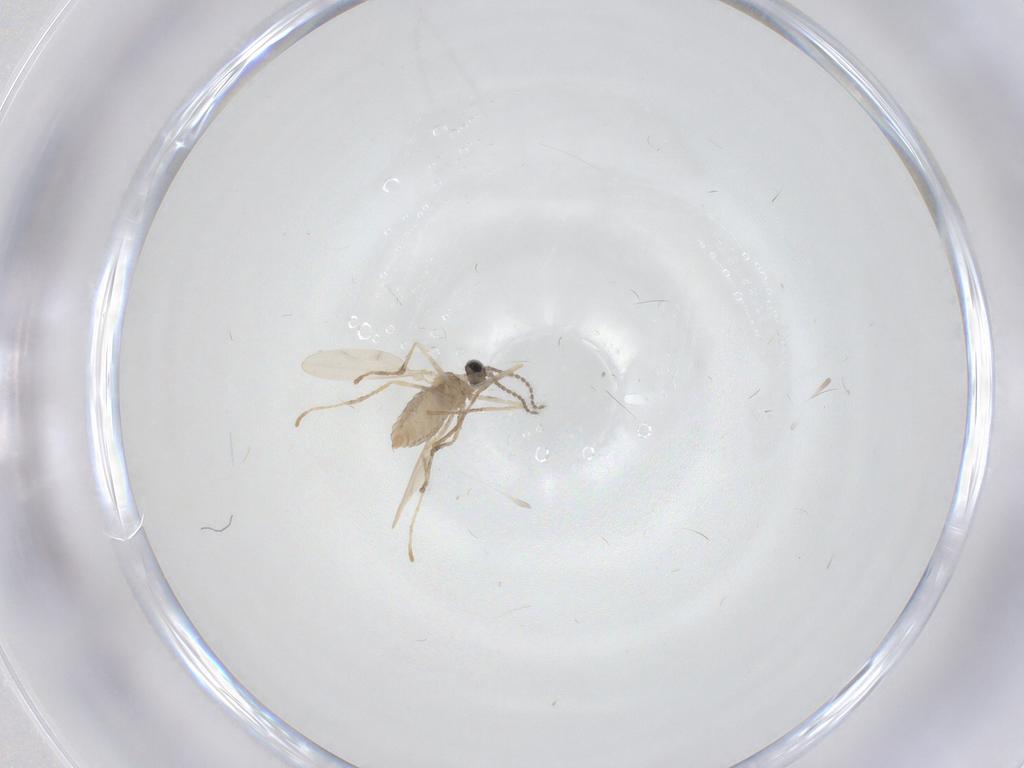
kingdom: Animalia
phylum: Arthropoda
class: Insecta
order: Diptera
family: Cecidomyiidae
